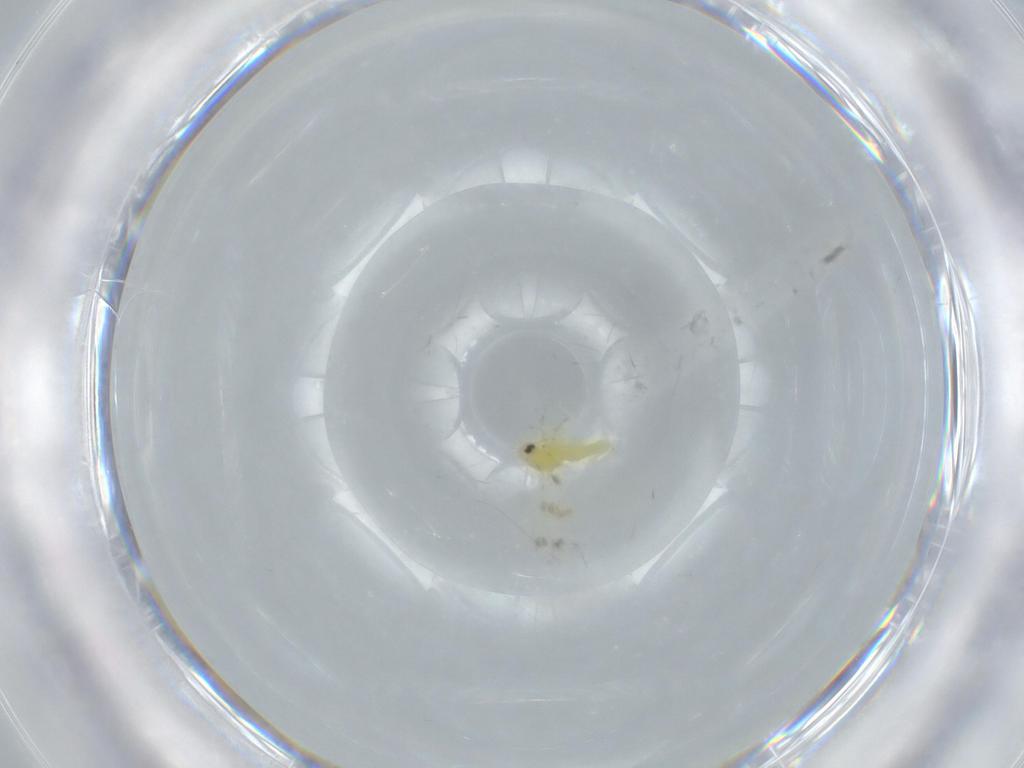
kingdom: Animalia
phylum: Arthropoda
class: Insecta
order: Hemiptera
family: Aleyrodidae
